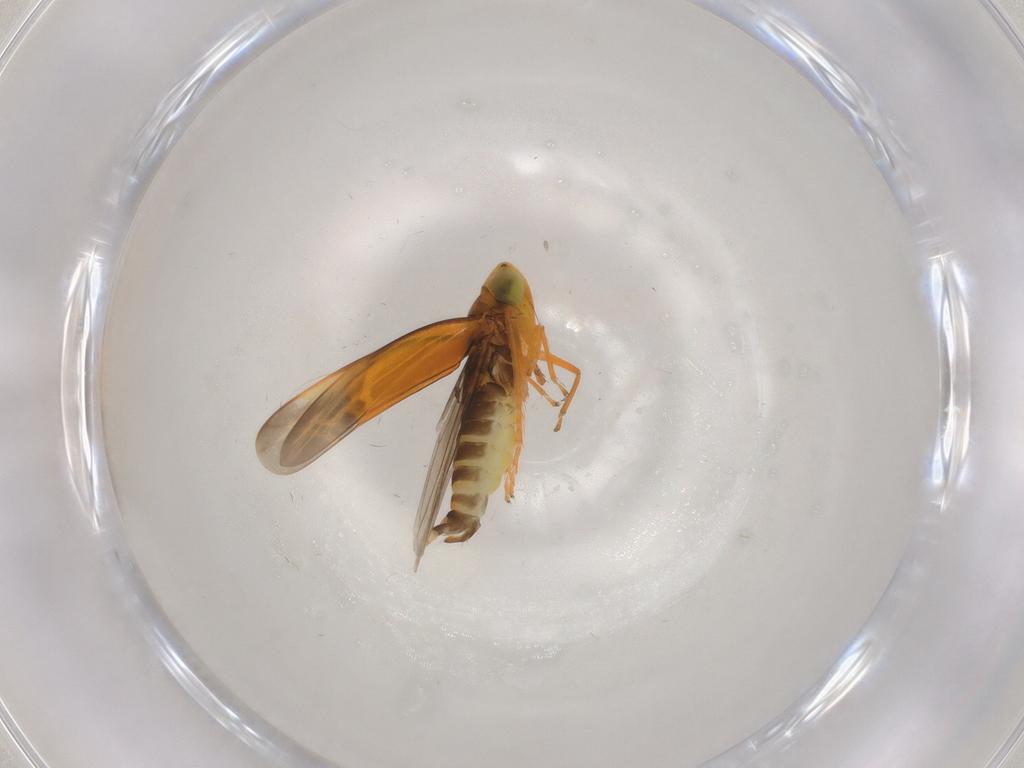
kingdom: Animalia
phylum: Arthropoda
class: Insecta
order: Hemiptera
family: Cicadellidae
